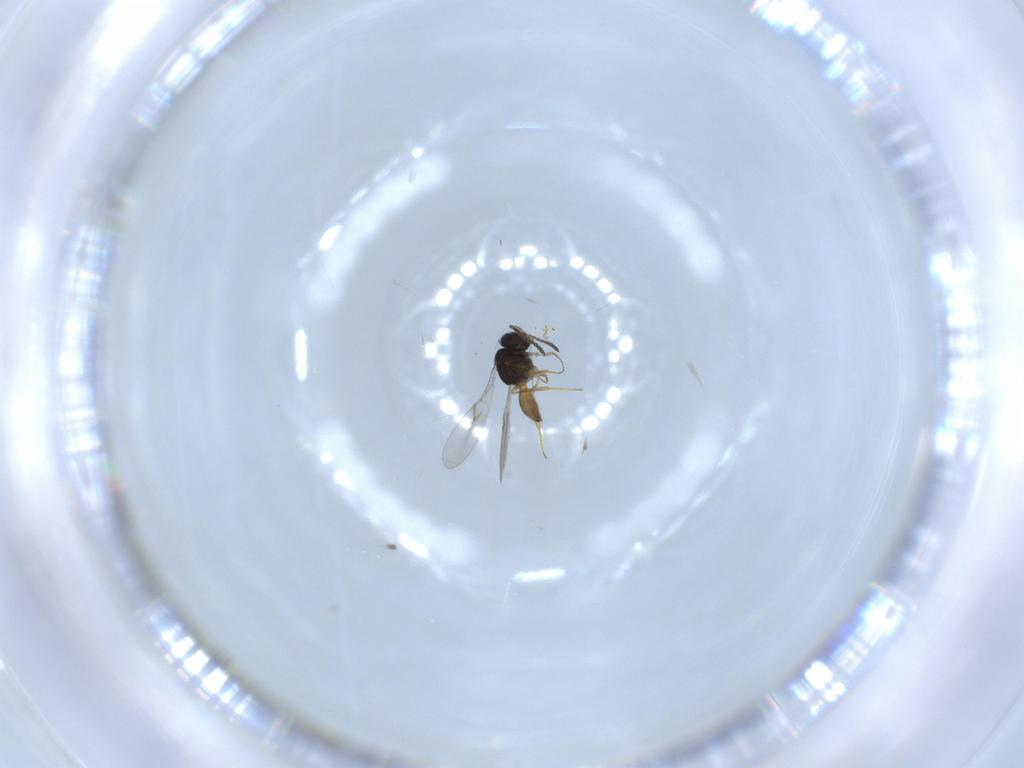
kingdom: Animalia
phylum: Arthropoda
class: Insecta
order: Hymenoptera
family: Scelionidae
